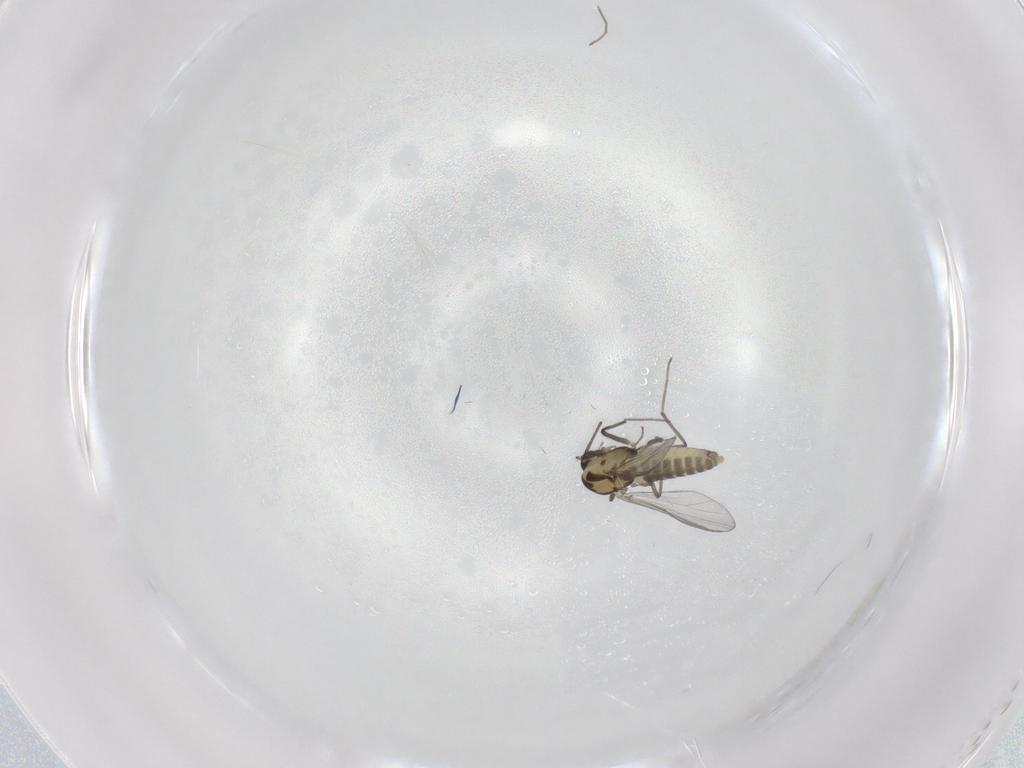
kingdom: Animalia
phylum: Arthropoda
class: Insecta
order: Diptera
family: Chironomidae
